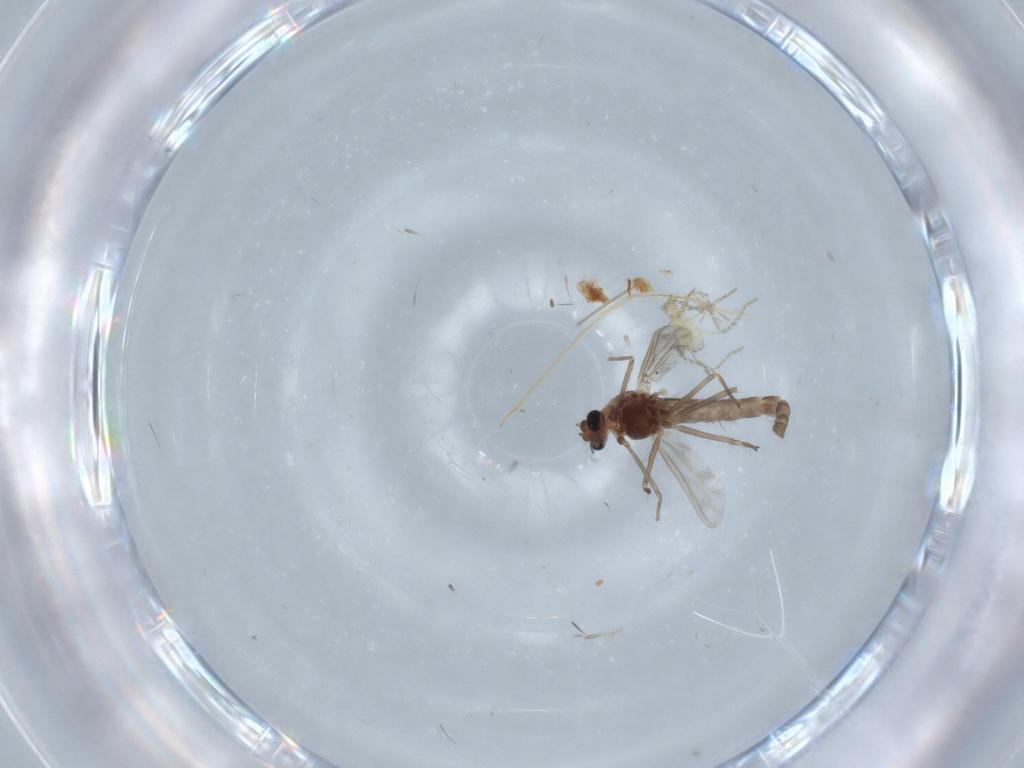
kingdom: Animalia
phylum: Arthropoda
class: Insecta
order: Diptera
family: Chironomidae
